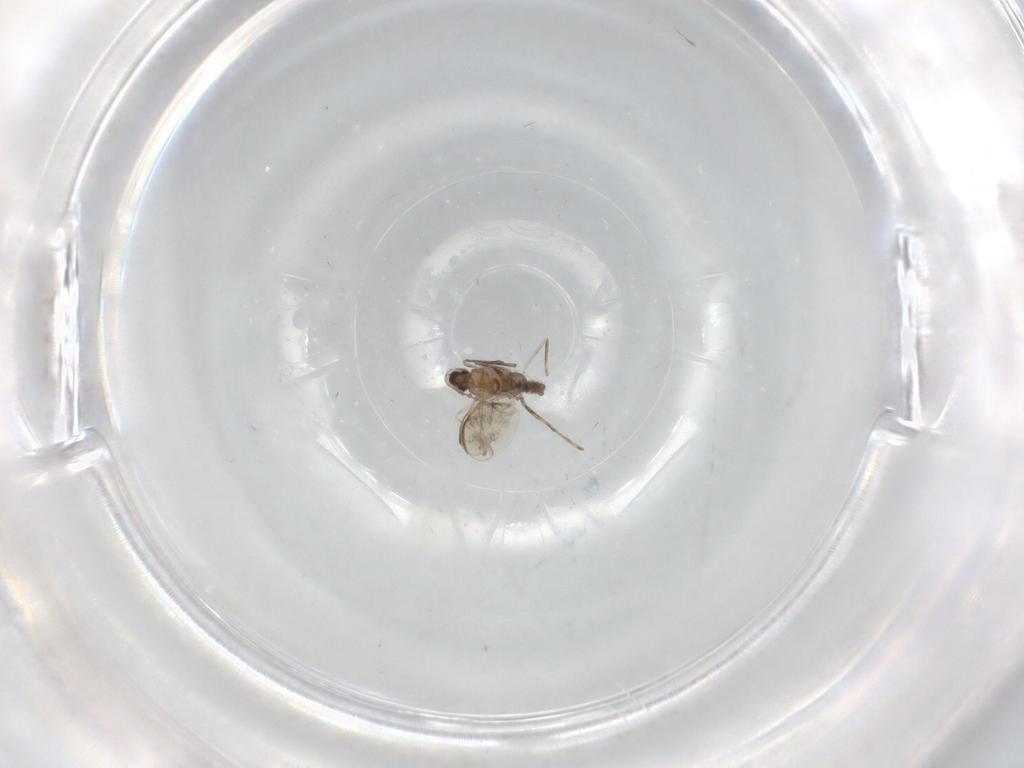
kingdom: Animalia
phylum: Arthropoda
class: Insecta
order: Diptera
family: Cecidomyiidae
